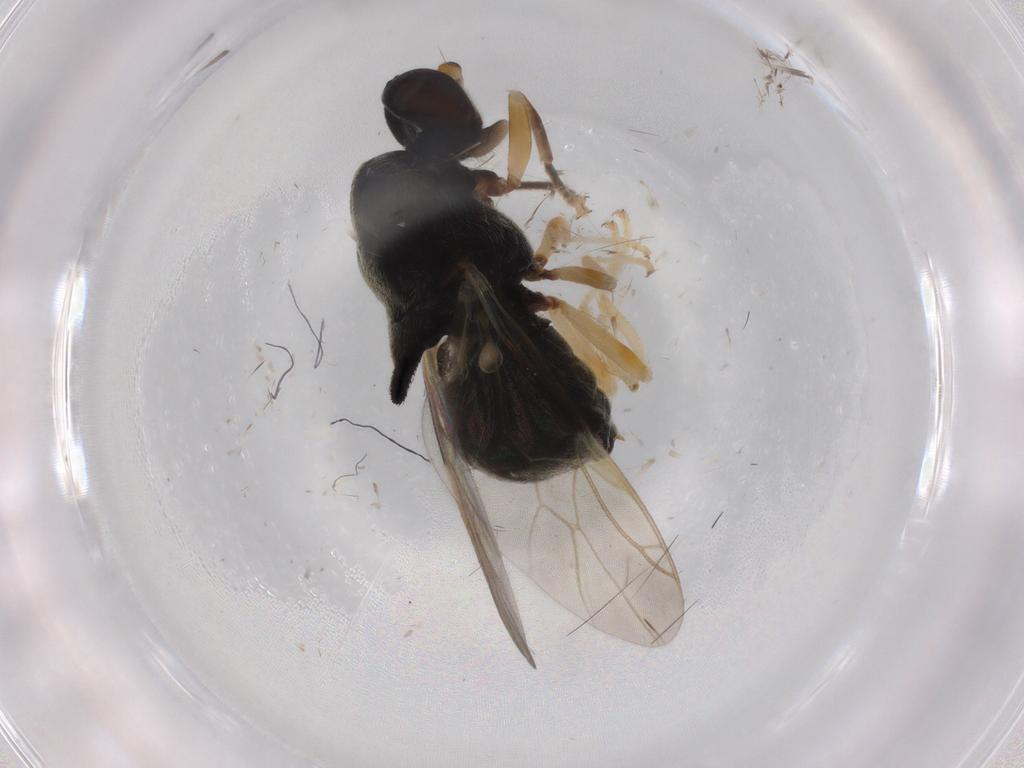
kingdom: Animalia
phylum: Arthropoda
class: Insecta
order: Diptera
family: Stratiomyidae
